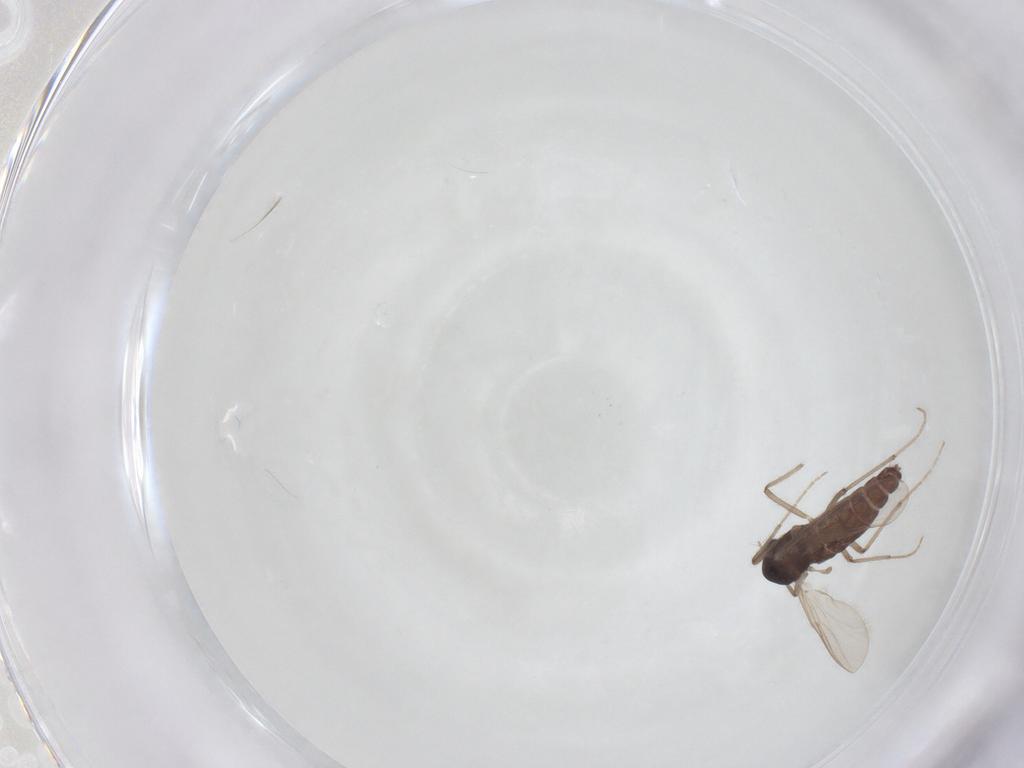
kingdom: Animalia
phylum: Arthropoda
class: Insecta
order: Diptera
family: Chironomidae
